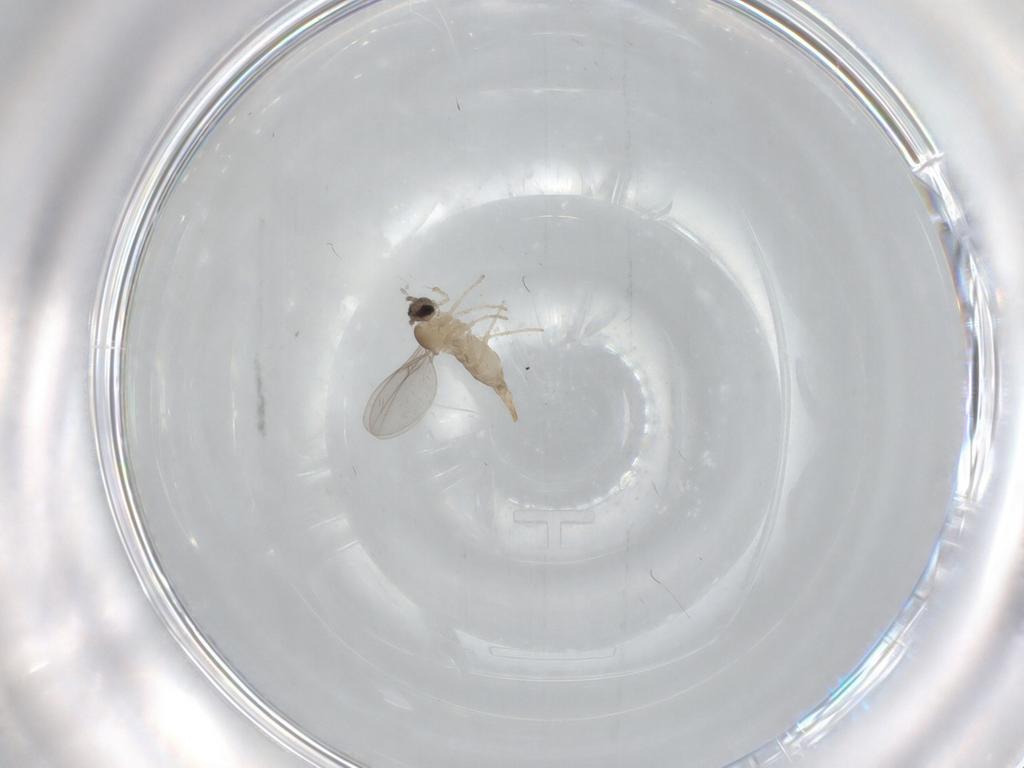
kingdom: Animalia
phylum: Arthropoda
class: Insecta
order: Diptera
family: Cecidomyiidae
